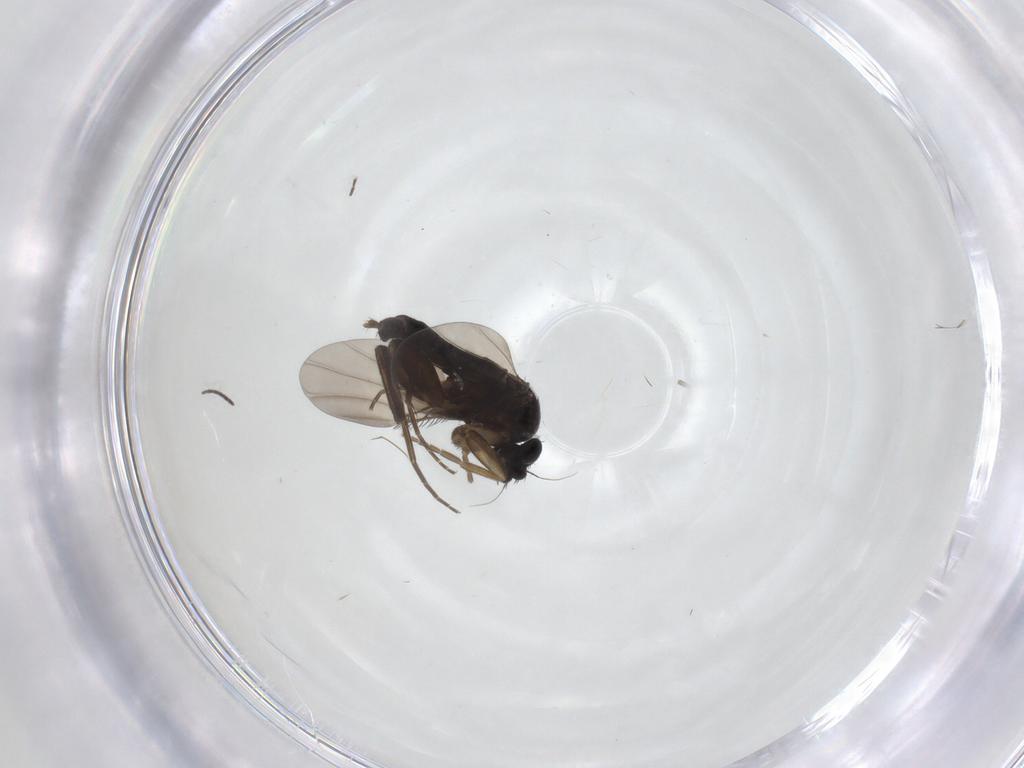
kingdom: Animalia
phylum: Arthropoda
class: Insecta
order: Diptera
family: Phoridae
